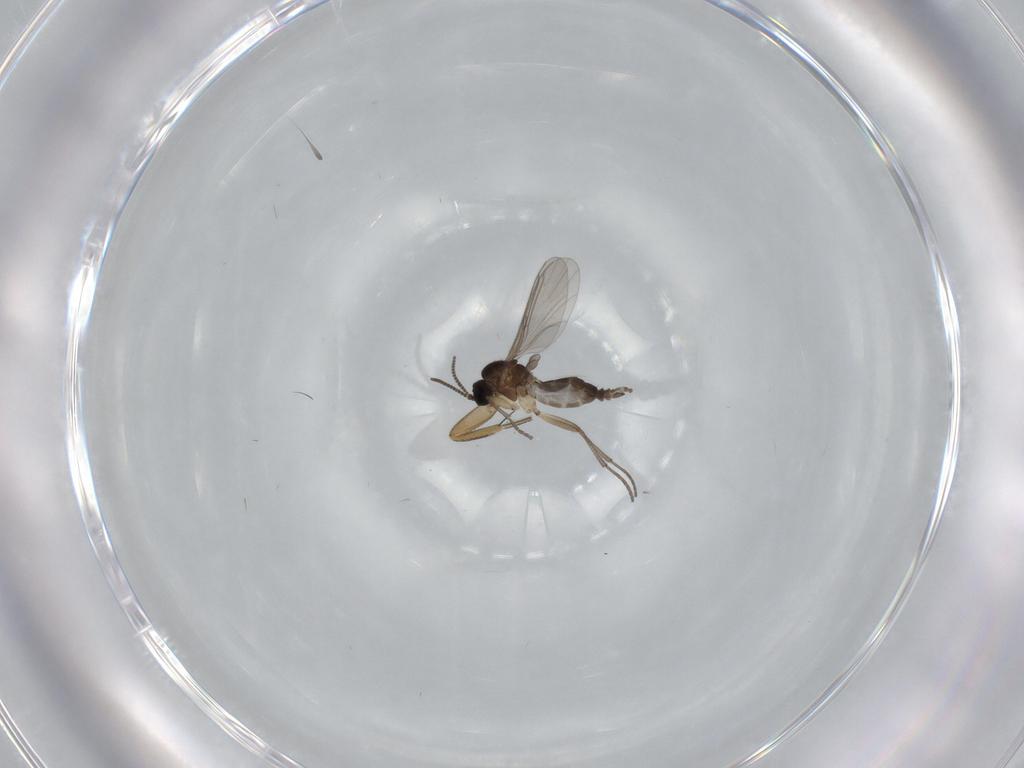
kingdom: Animalia
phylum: Arthropoda
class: Insecta
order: Diptera
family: Sciaridae
